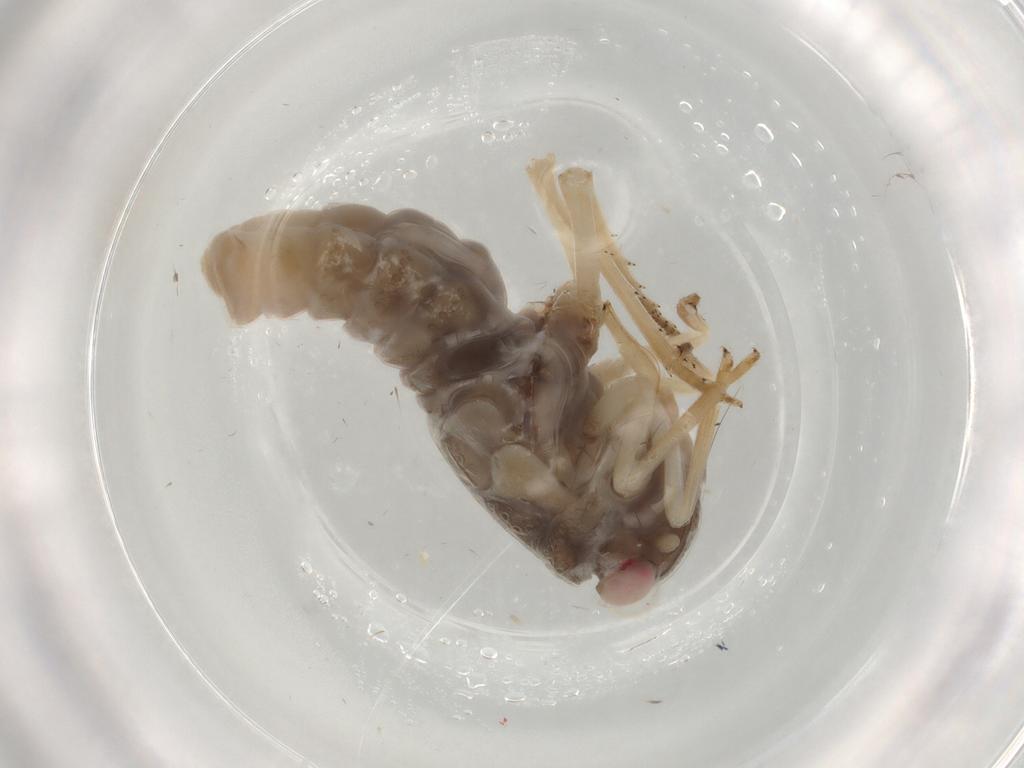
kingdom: Animalia
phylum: Arthropoda
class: Insecta
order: Hemiptera
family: Tropiduchidae
